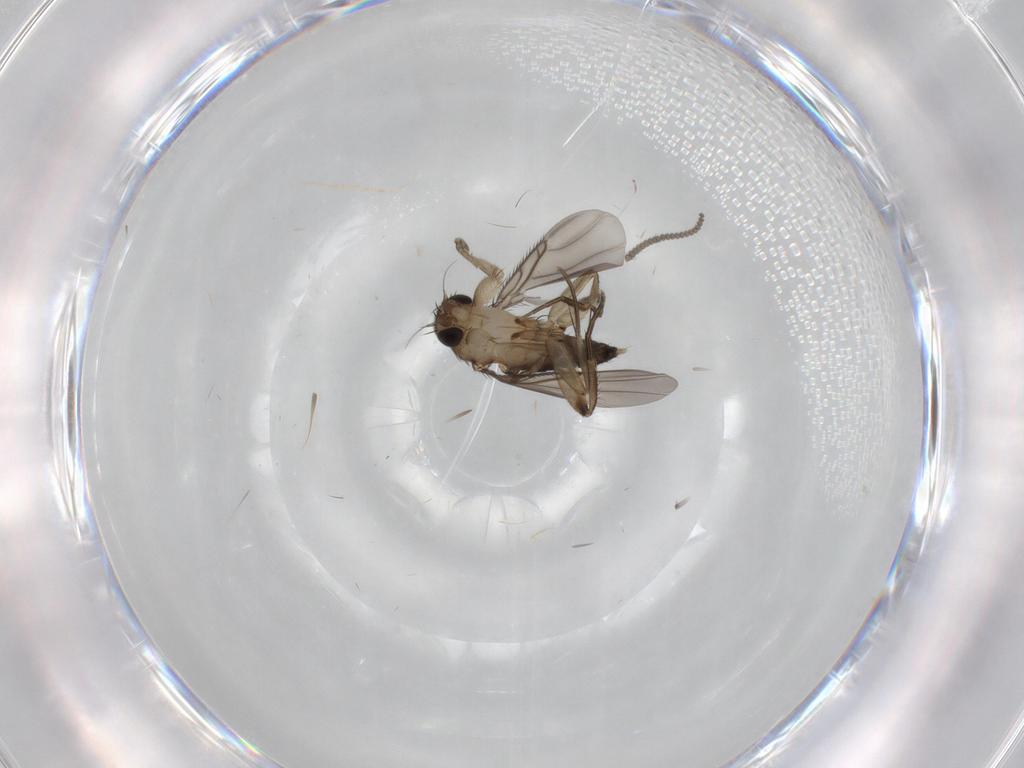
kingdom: Animalia
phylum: Arthropoda
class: Insecta
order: Diptera
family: Phoridae
